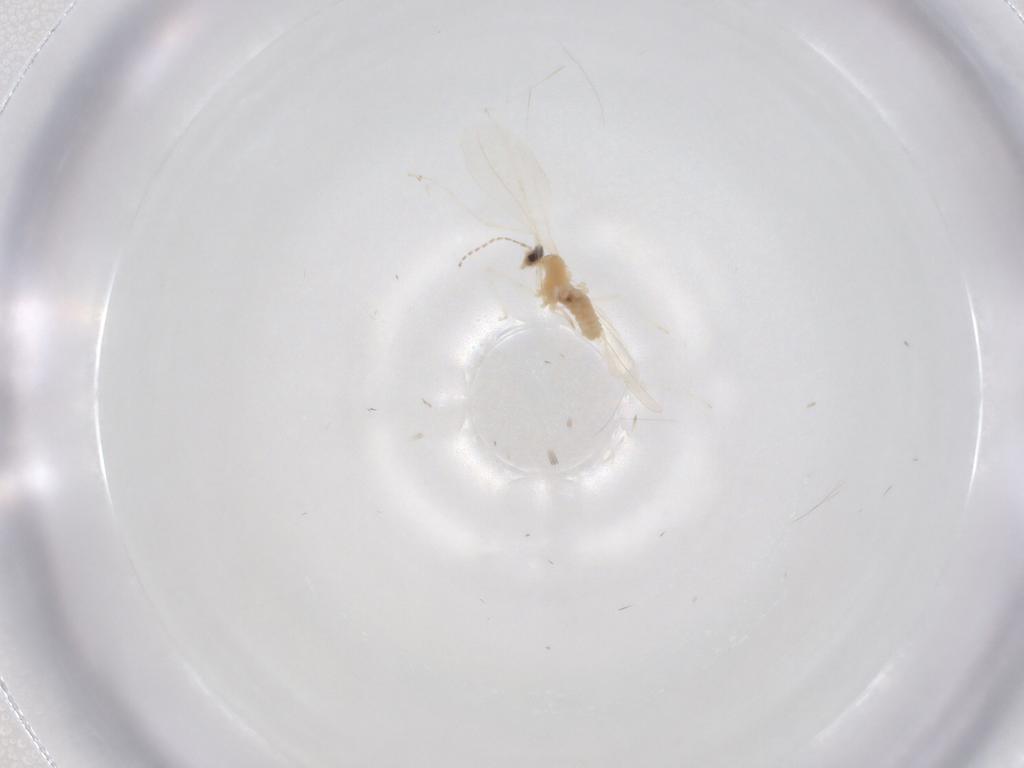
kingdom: Animalia
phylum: Arthropoda
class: Insecta
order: Diptera
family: Cecidomyiidae
